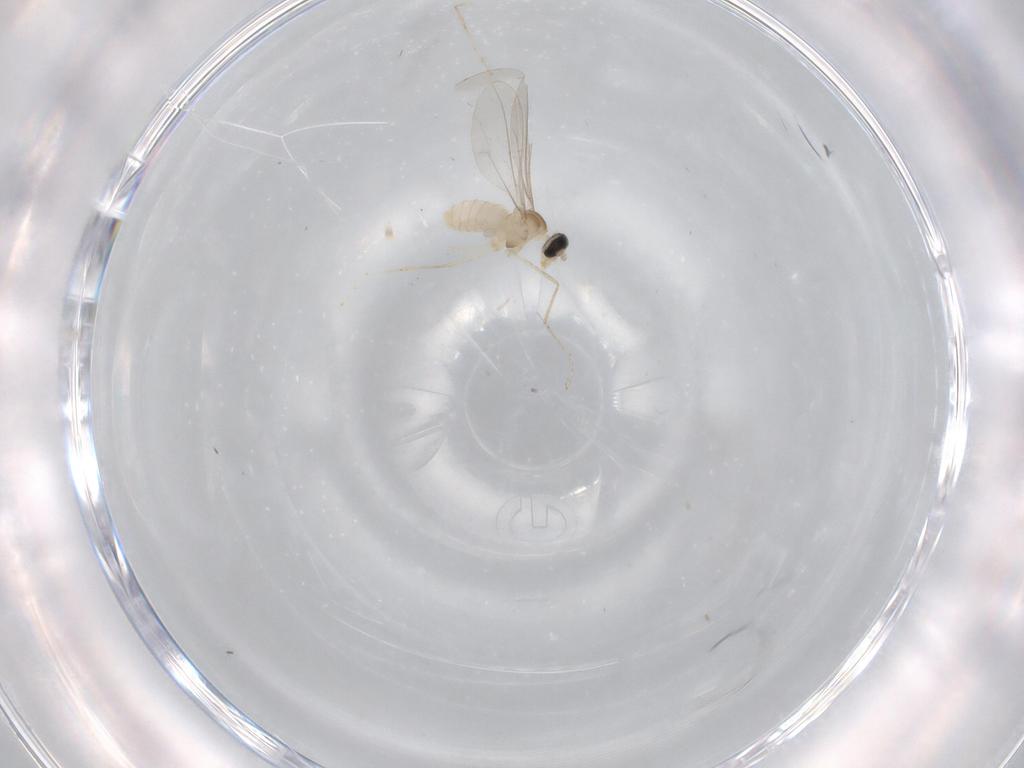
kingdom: Animalia
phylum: Arthropoda
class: Insecta
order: Diptera
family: Cecidomyiidae
